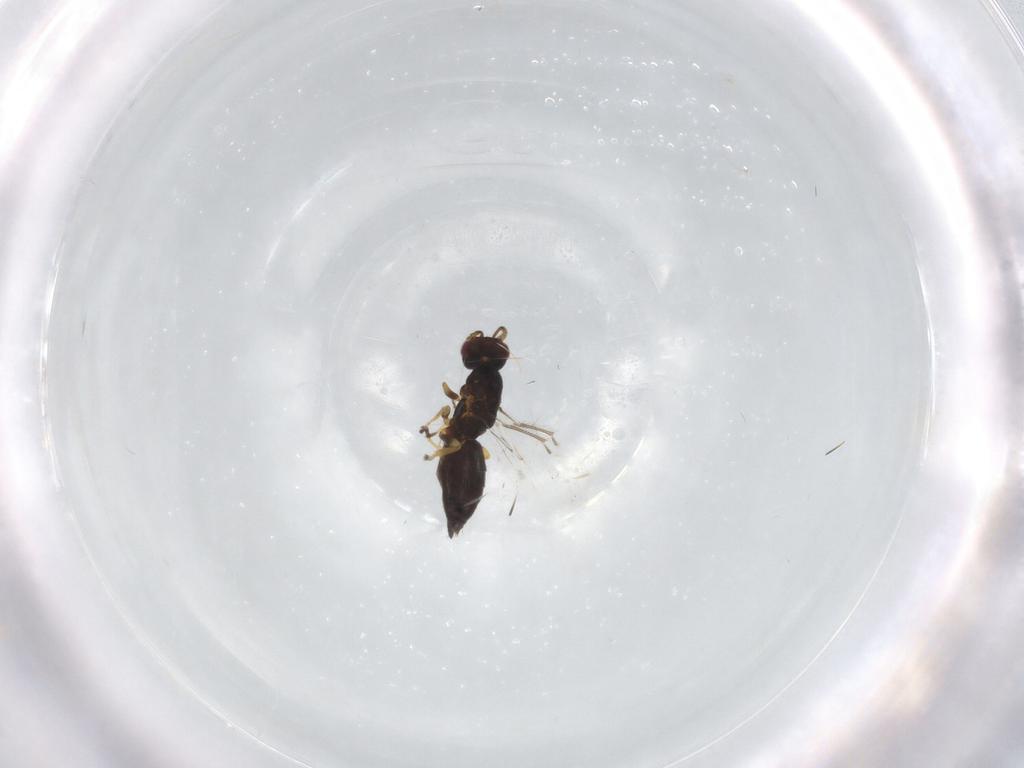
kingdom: Animalia
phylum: Arthropoda
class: Insecta
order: Hymenoptera
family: Eulophidae
